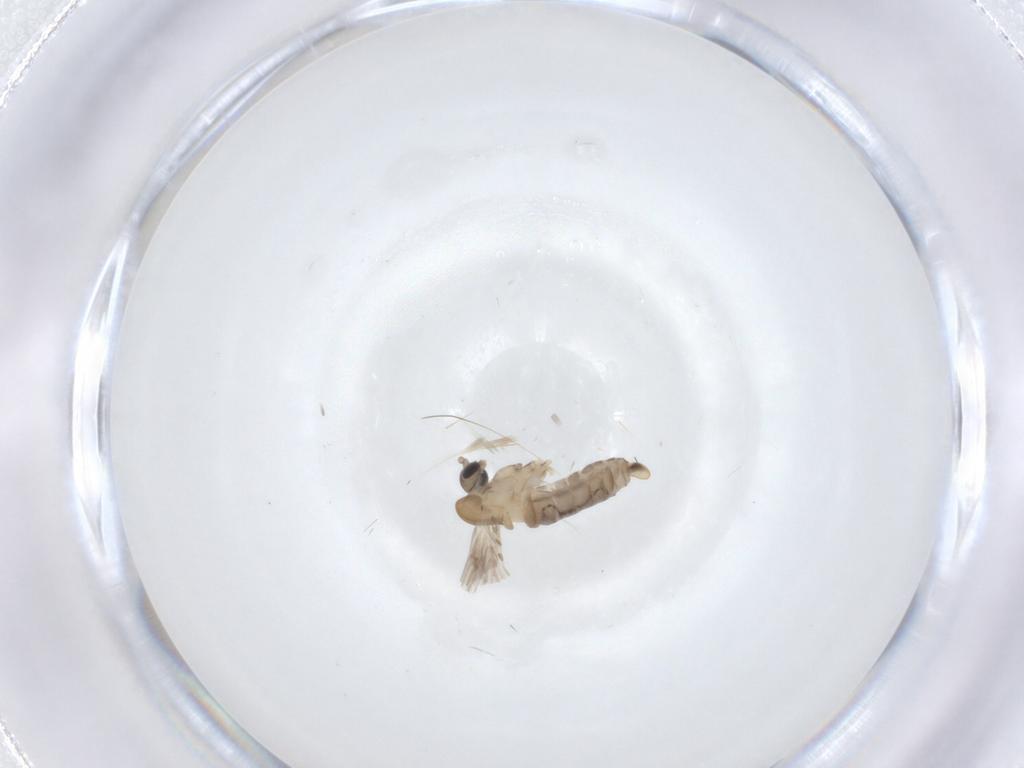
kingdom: Animalia
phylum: Arthropoda
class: Insecta
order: Diptera
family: Psychodidae
